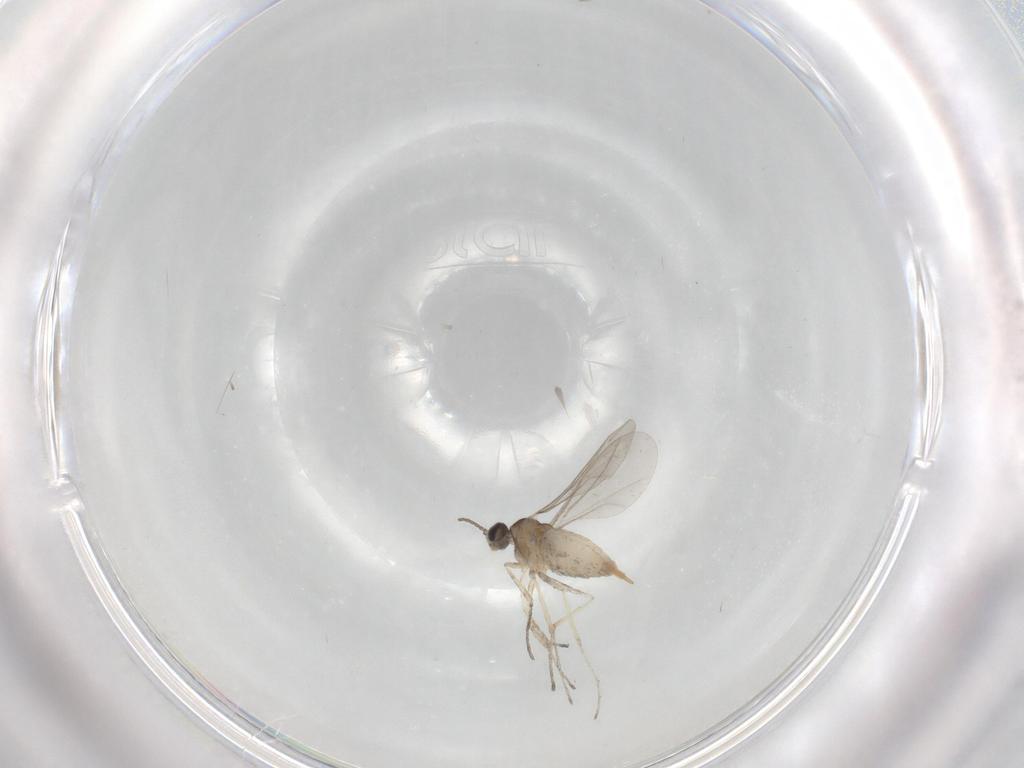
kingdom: Animalia
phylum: Arthropoda
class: Insecta
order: Diptera
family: Cecidomyiidae
